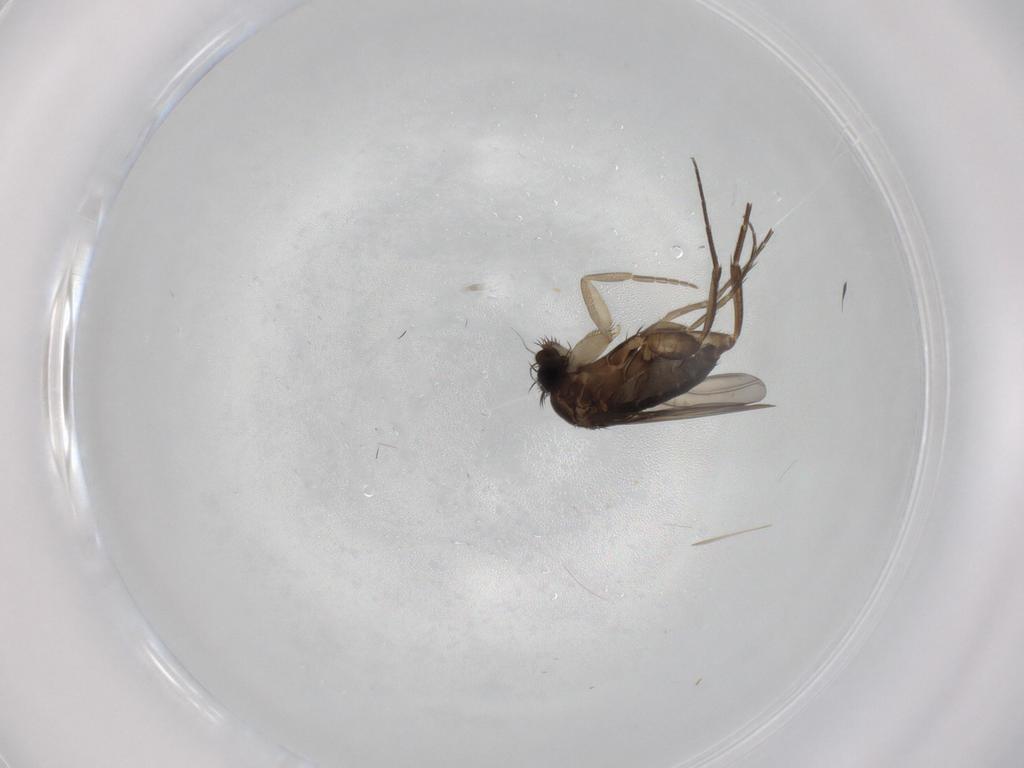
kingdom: Animalia
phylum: Arthropoda
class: Insecta
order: Diptera
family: Phoridae
